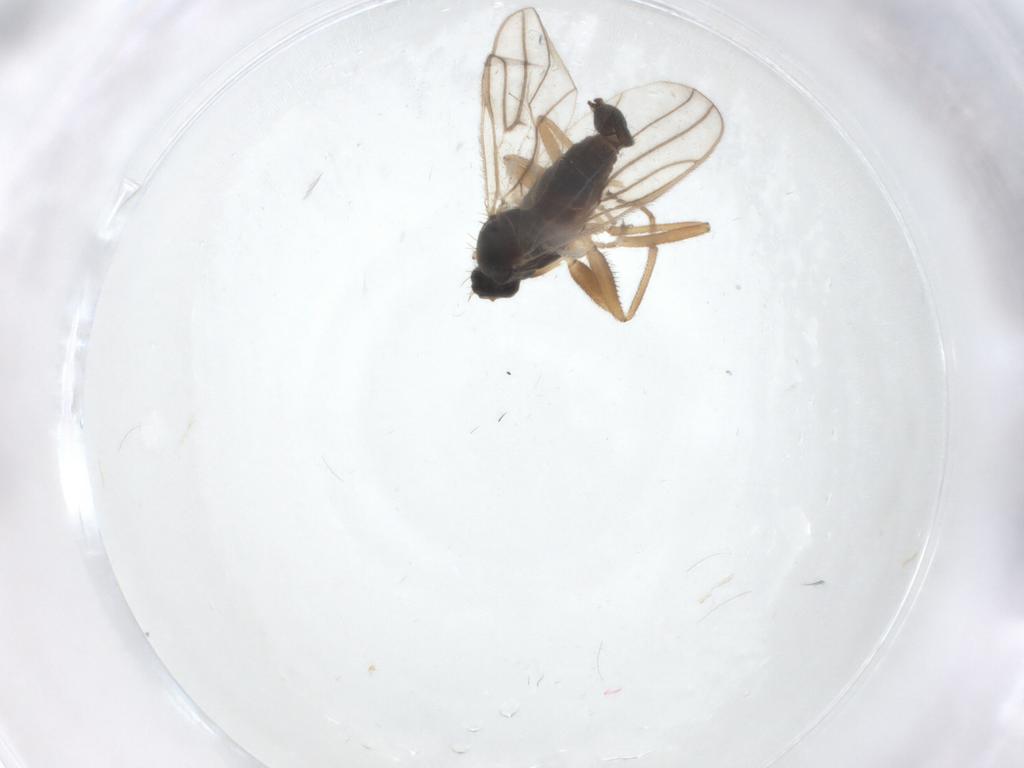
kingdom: Animalia
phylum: Arthropoda
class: Insecta
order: Diptera
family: Hybotidae
